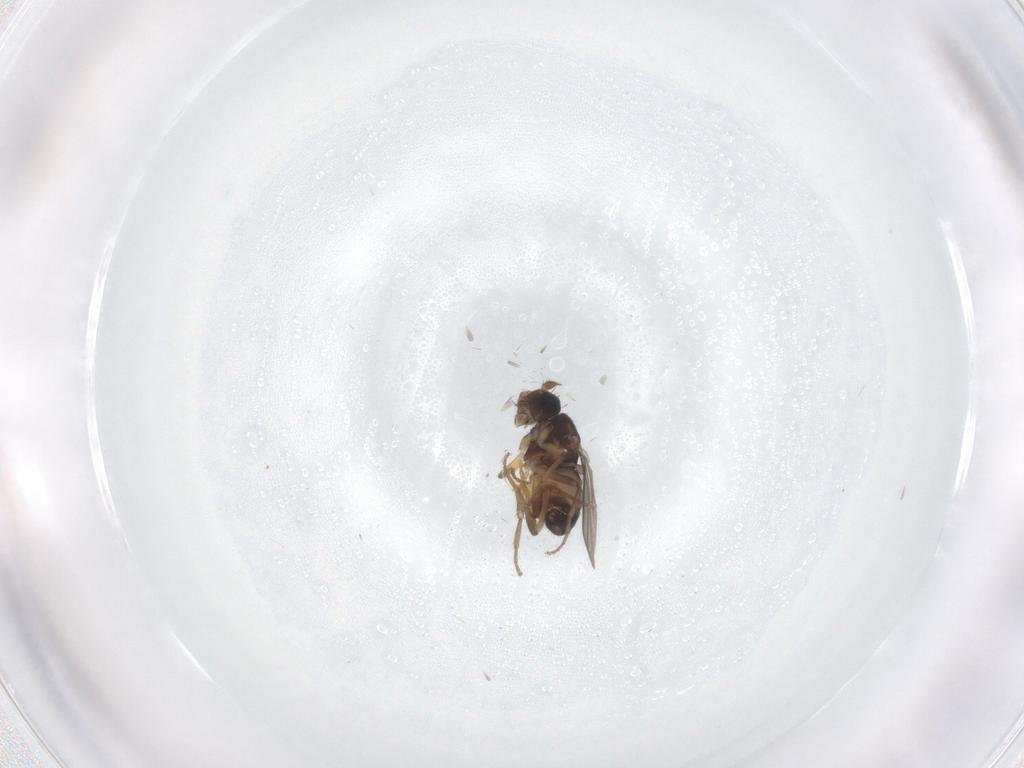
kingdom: Animalia
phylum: Arthropoda
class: Insecta
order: Diptera
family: Sphaeroceridae
